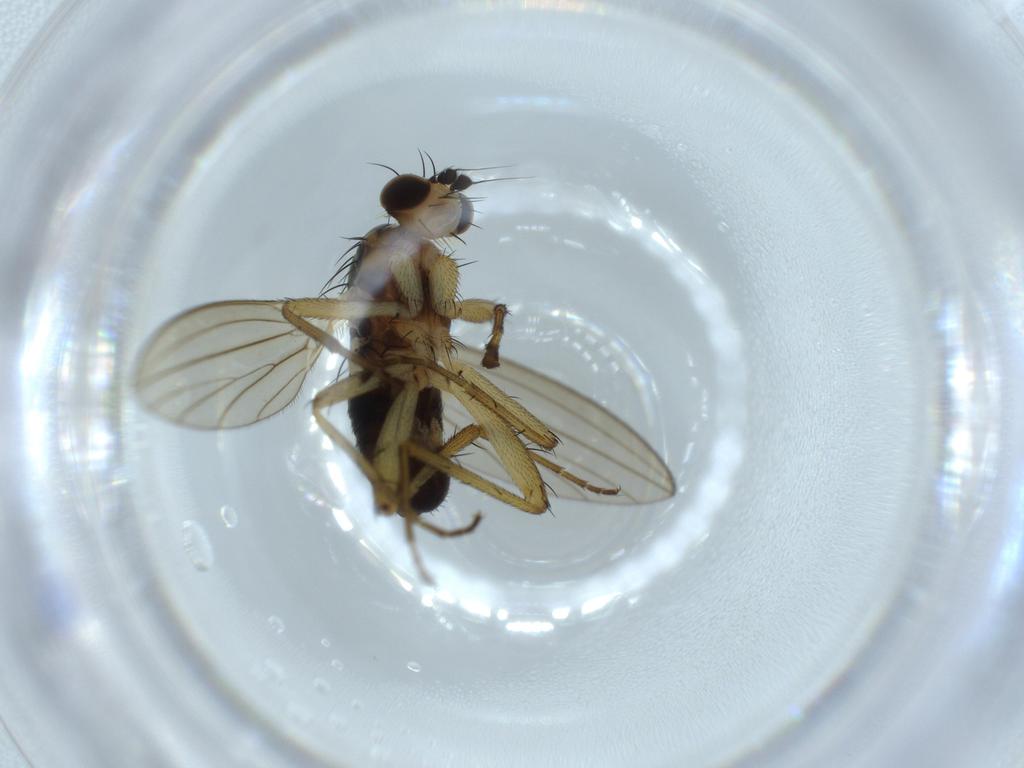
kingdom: Animalia
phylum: Arthropoda
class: Insecta
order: Diptera
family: Lonchopteridae
